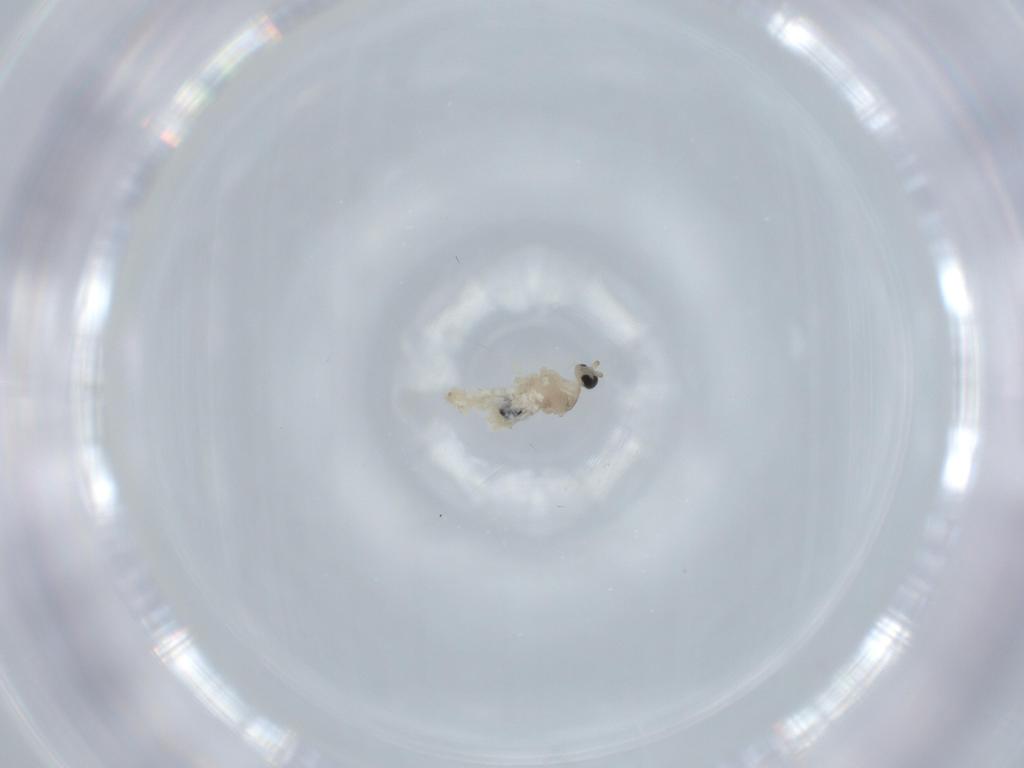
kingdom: Animalia
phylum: Arthropoda
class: Insecta
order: Diptera
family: Cecidomyiidae
